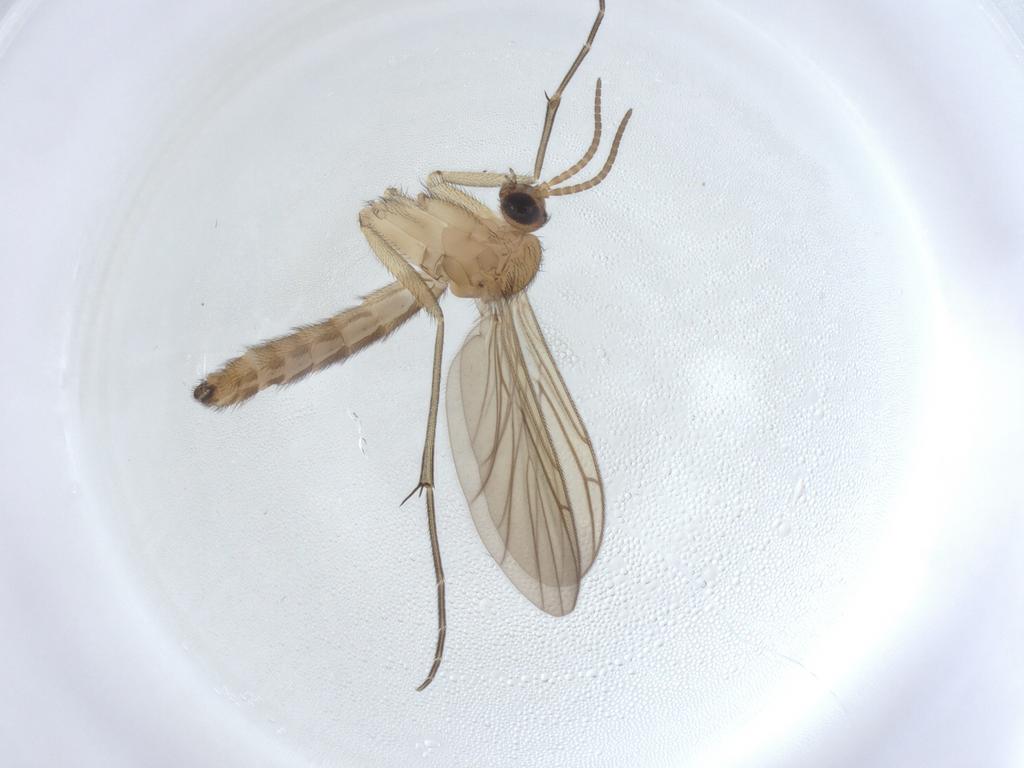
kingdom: Animalia
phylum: Arthropoda
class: Insecta
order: Diptera
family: Keroplatidae
